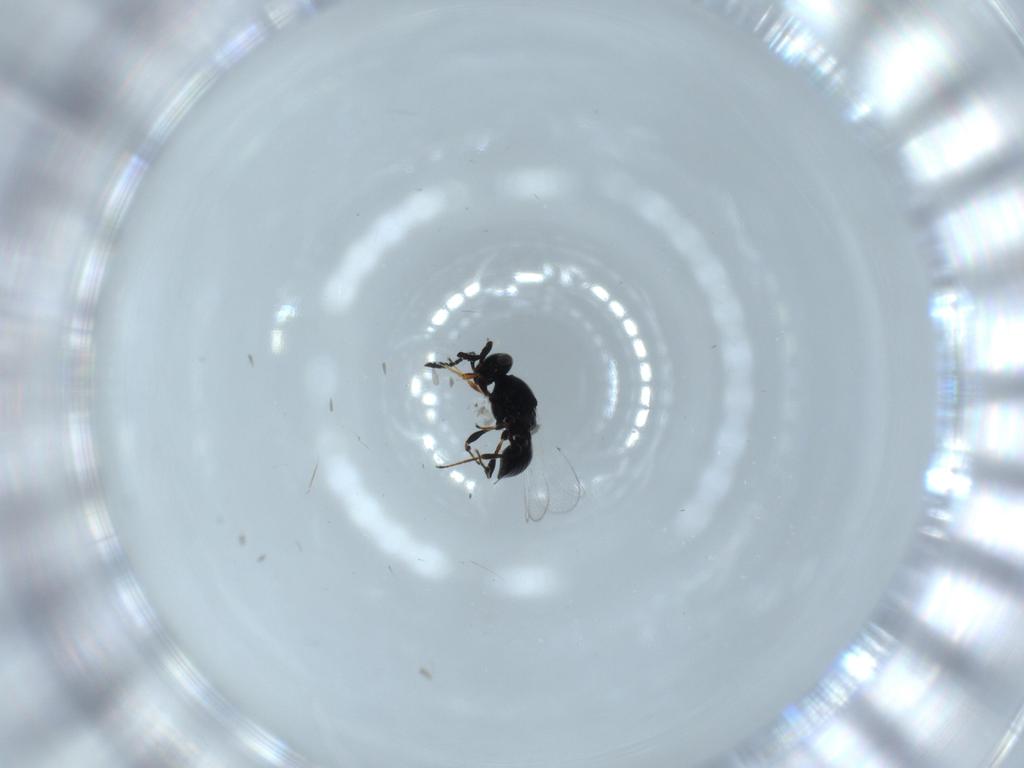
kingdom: Animalia
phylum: Arthropoda
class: Insecta
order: Hymenoptera
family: Platygastridae
